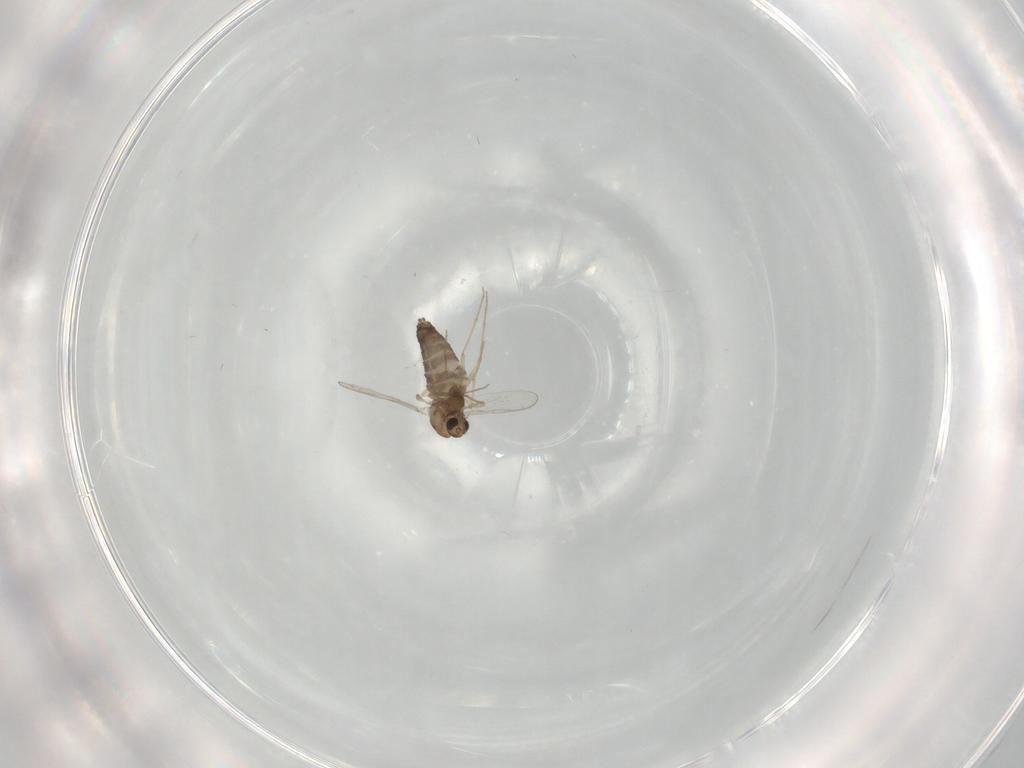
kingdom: Animalia
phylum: Arthropoda
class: Insecta
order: Diptera
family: Chironomidae
